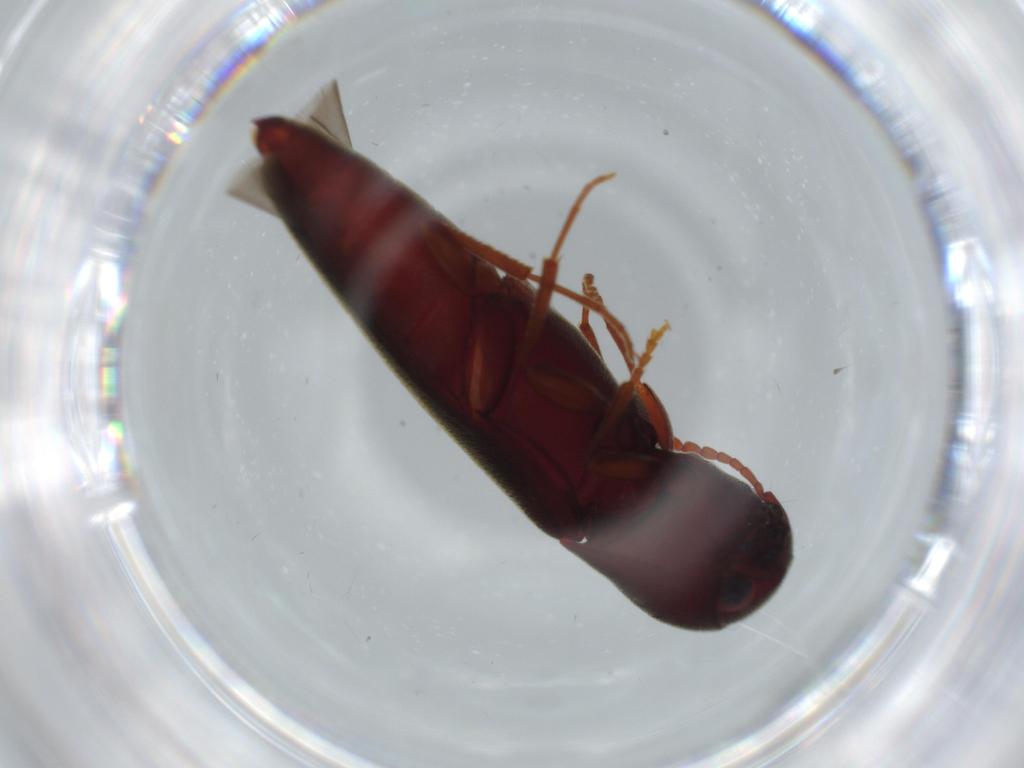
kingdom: Animalia
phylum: Arthropoda
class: Insecta
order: Coleoptera
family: Eucnemidae
